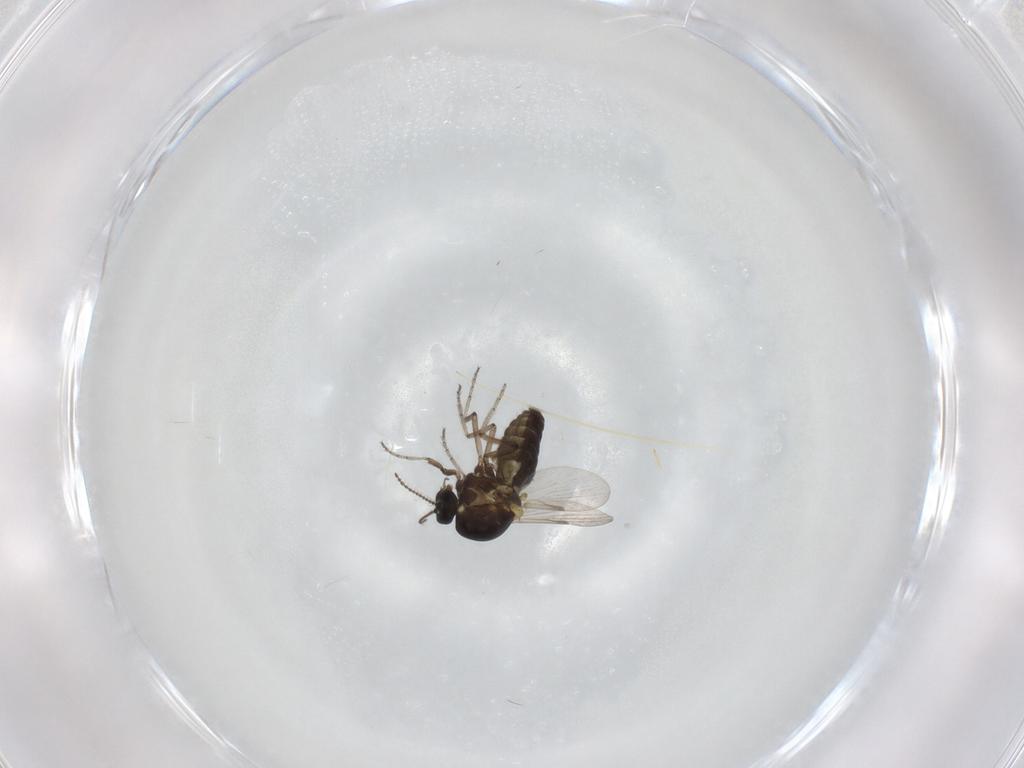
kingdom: Animalia
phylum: Arthropoda
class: Insecta
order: Diptera
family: Ceratopogonidae
